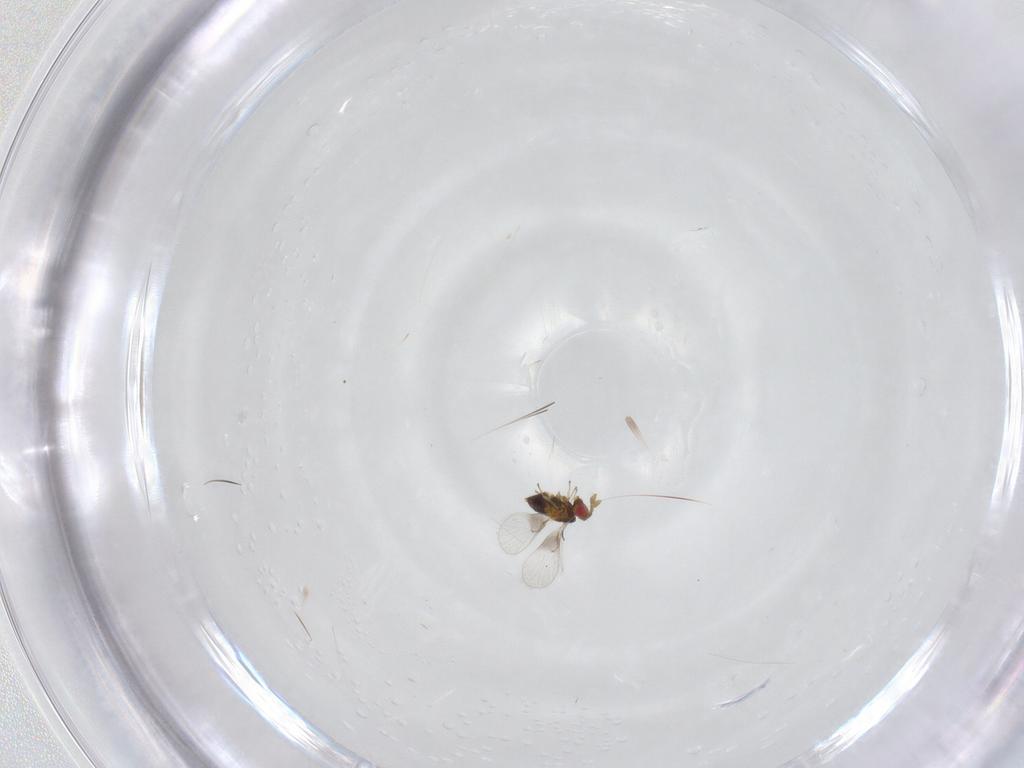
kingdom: Animalia
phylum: Arthropoda
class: Insecta
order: Hymenoptera
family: Trichogrammatidae
